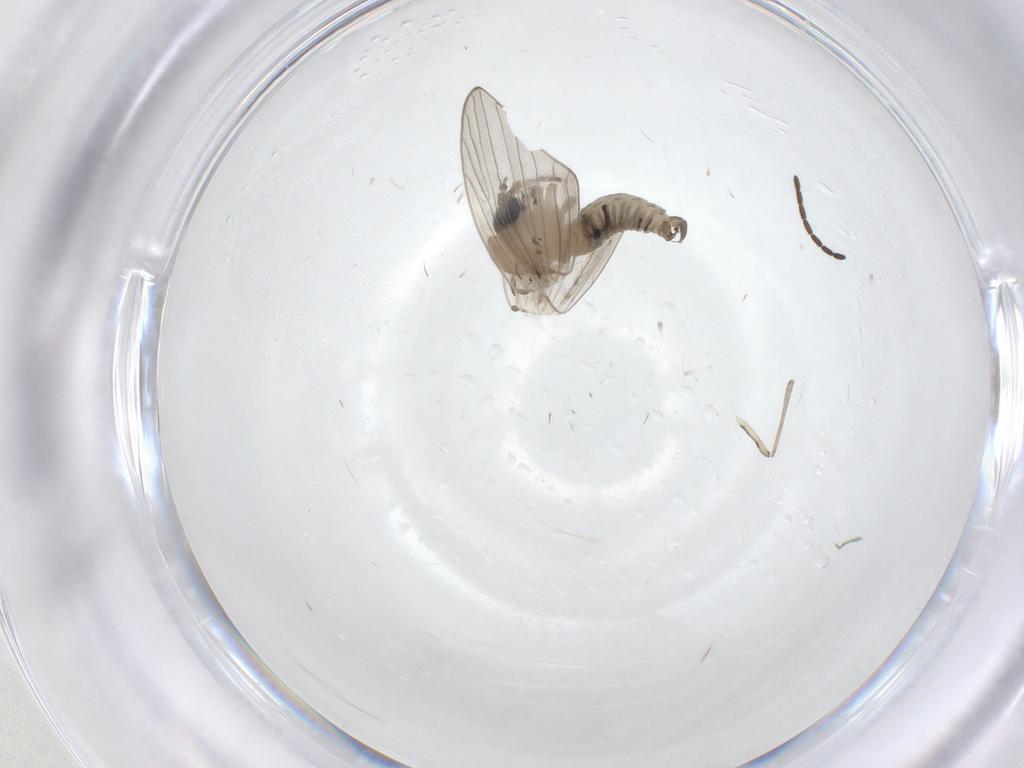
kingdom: Animalia
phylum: Arthropoda
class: Insecta
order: Diptera
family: Psychodidae
